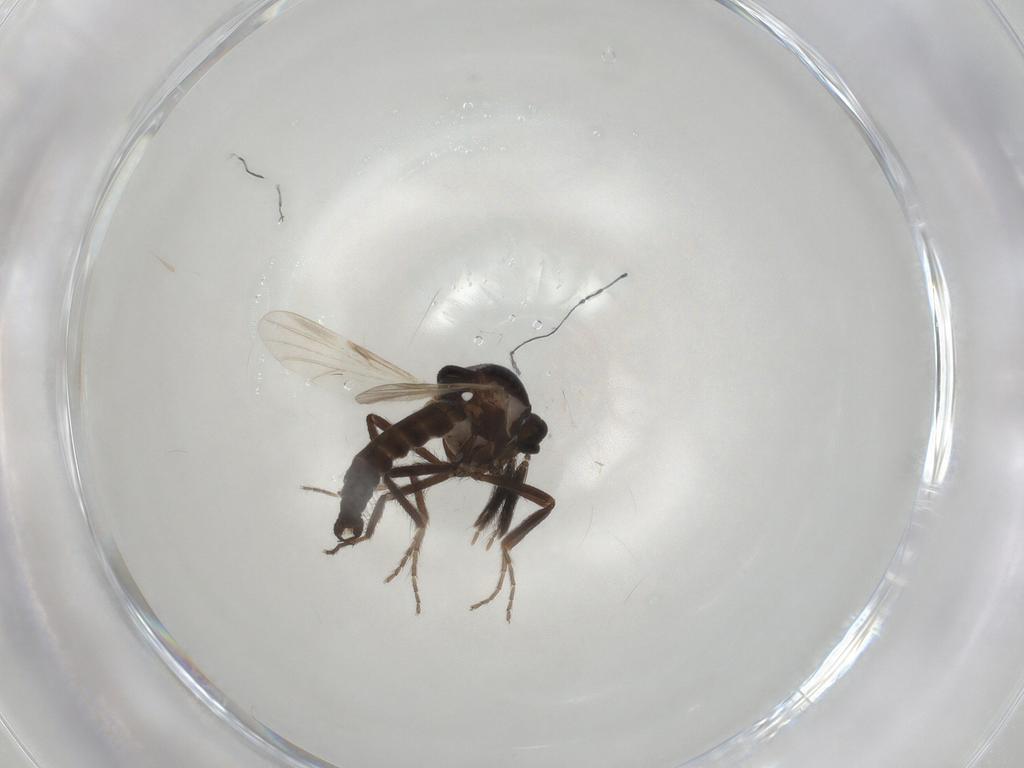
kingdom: Animalia
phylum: Arthropoda
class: Insecta
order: Diptera
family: Ceratopogonidae
